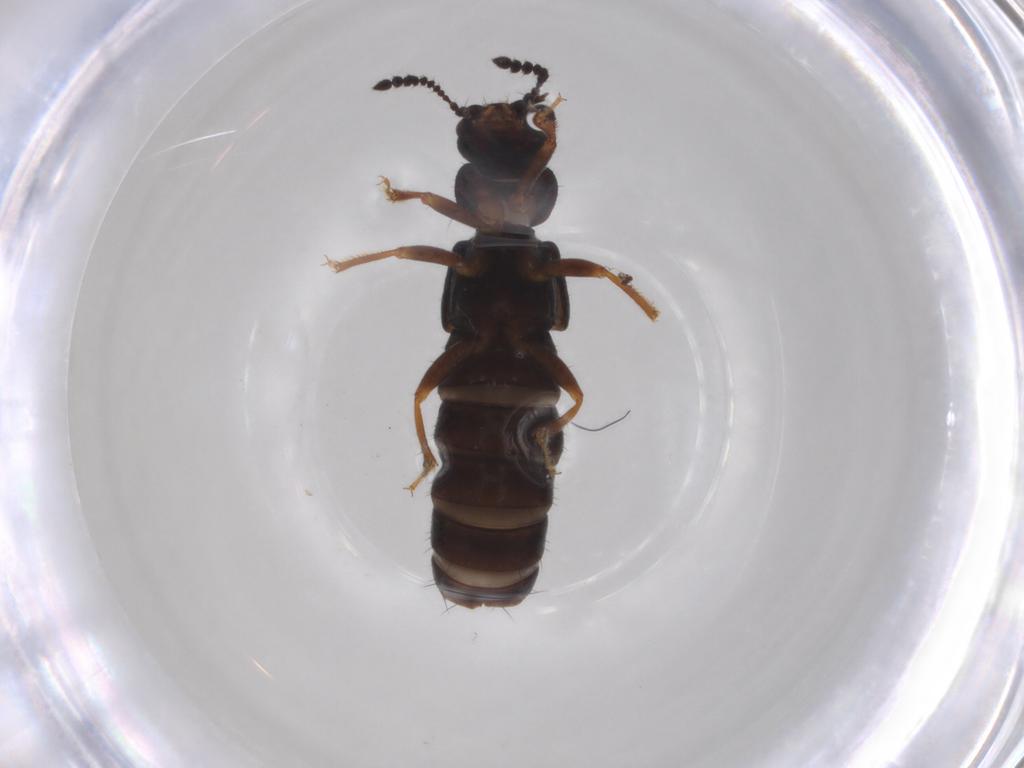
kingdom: Animalia
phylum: Arthropoda
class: Insecta
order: Coleoptera
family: Staphylinidae
